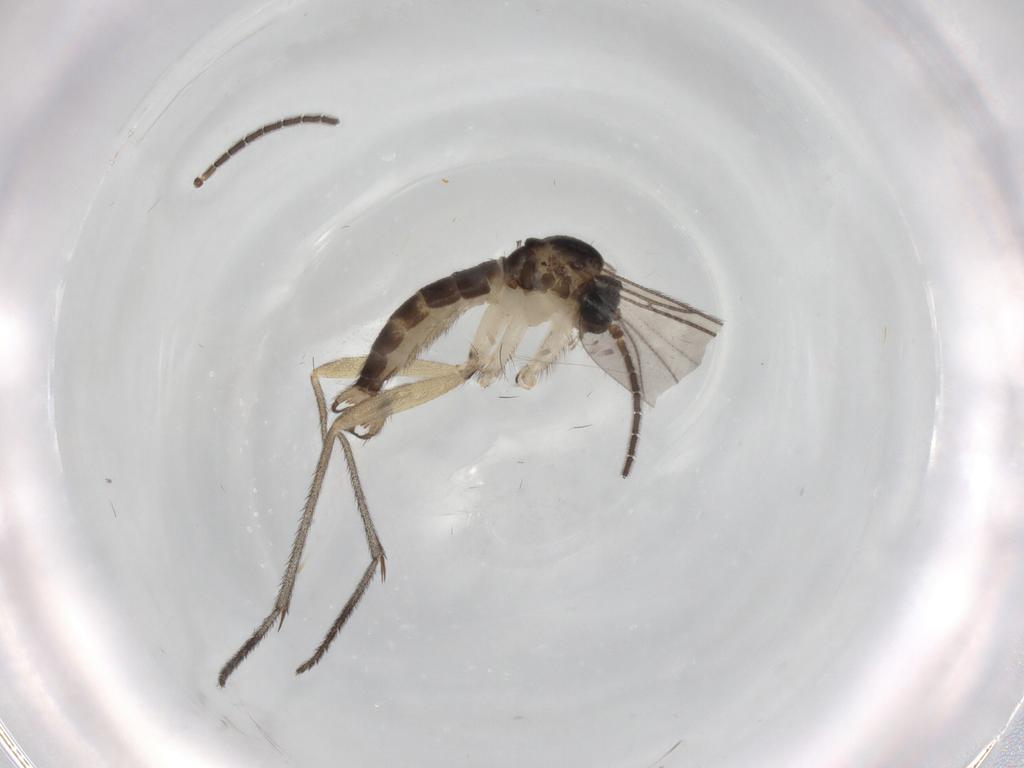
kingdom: Animalia
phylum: Arthropoda
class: Insecta
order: Diptera
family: Sciaridae
